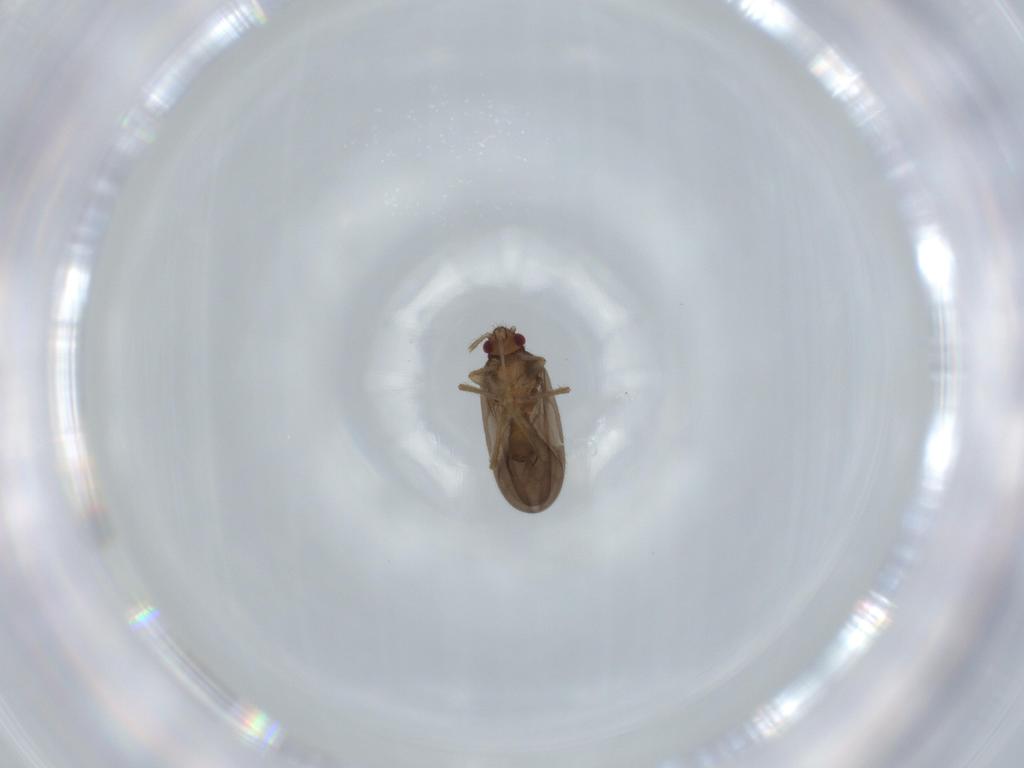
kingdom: Animalia
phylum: Arthropoda
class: Insecta
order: Hemiptera
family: Ceratocombidae
